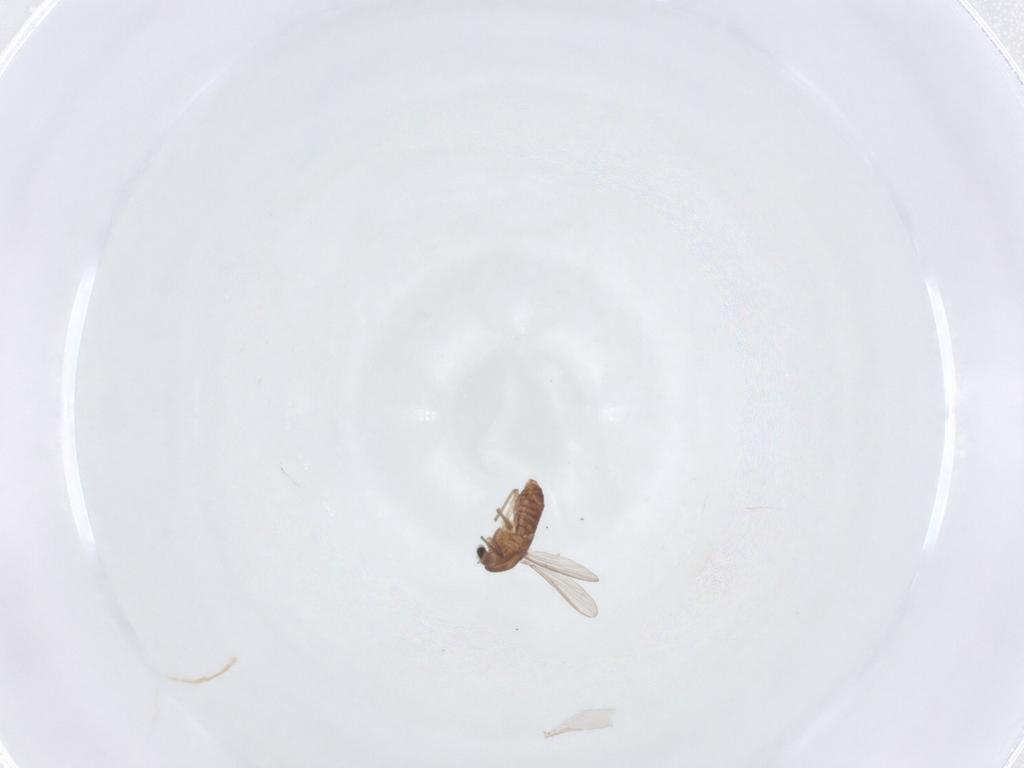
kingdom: Animalia
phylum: Arthropoda
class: Insecta
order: Diptera
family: Chironomidae
